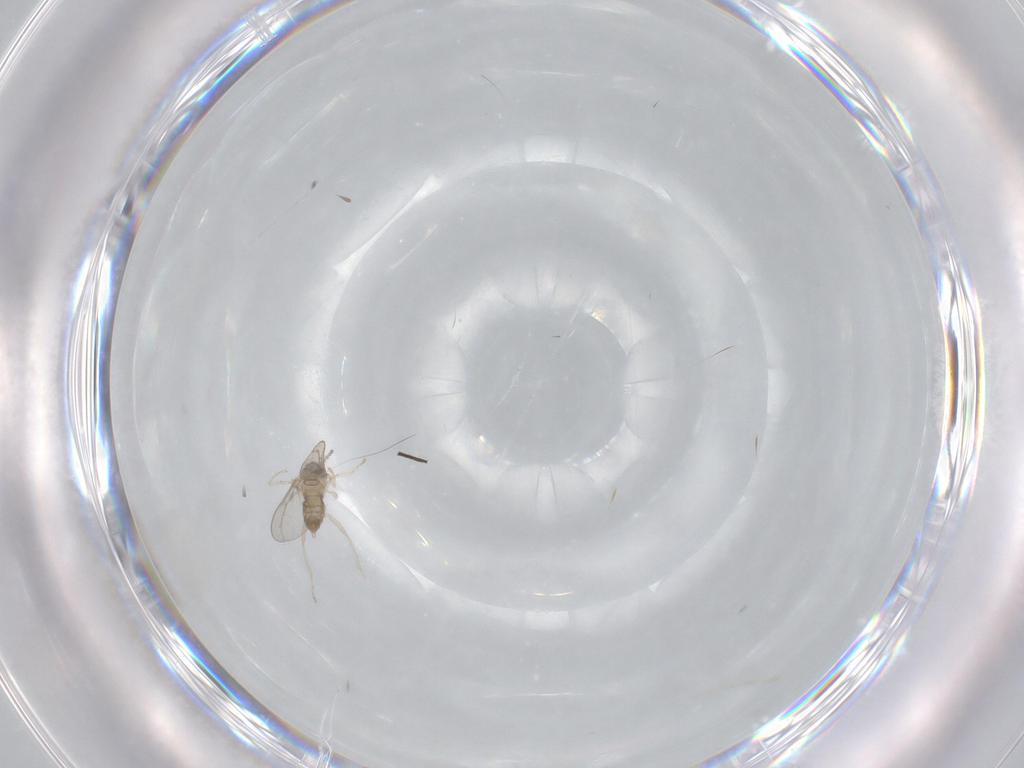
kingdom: Animalia
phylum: Arthropoda
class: Insecta
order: Diptera
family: Cecidomyiidae
